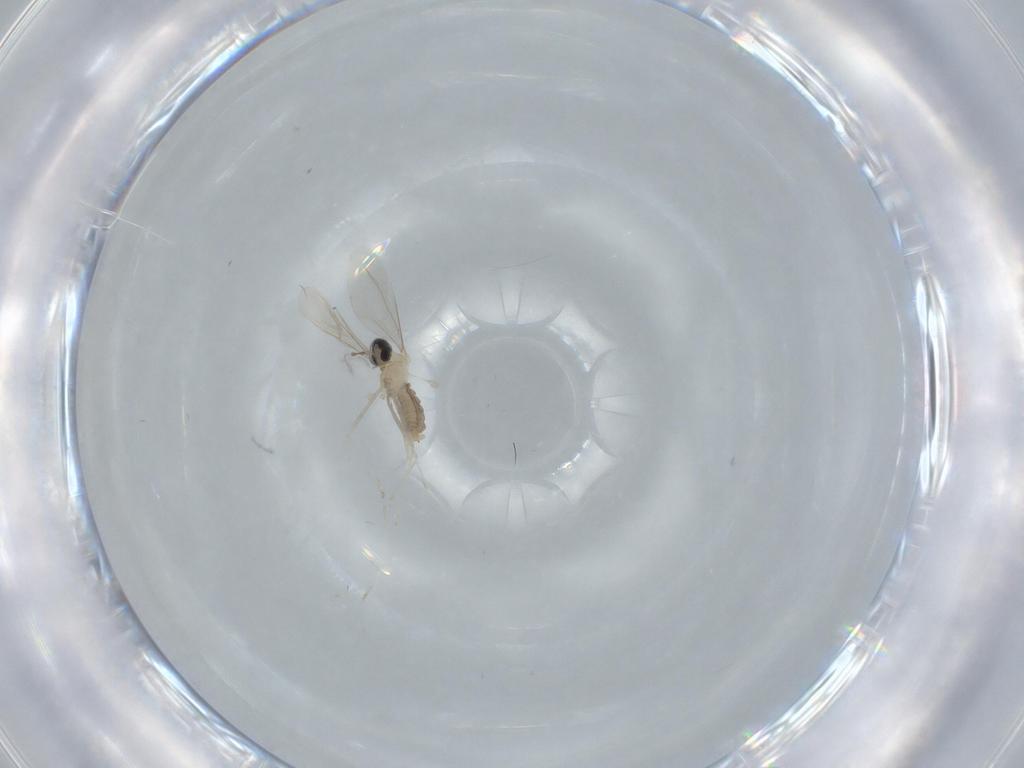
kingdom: Animalia
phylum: Arthropoda
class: Insecta
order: Diptera
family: Cecidomyiidae
